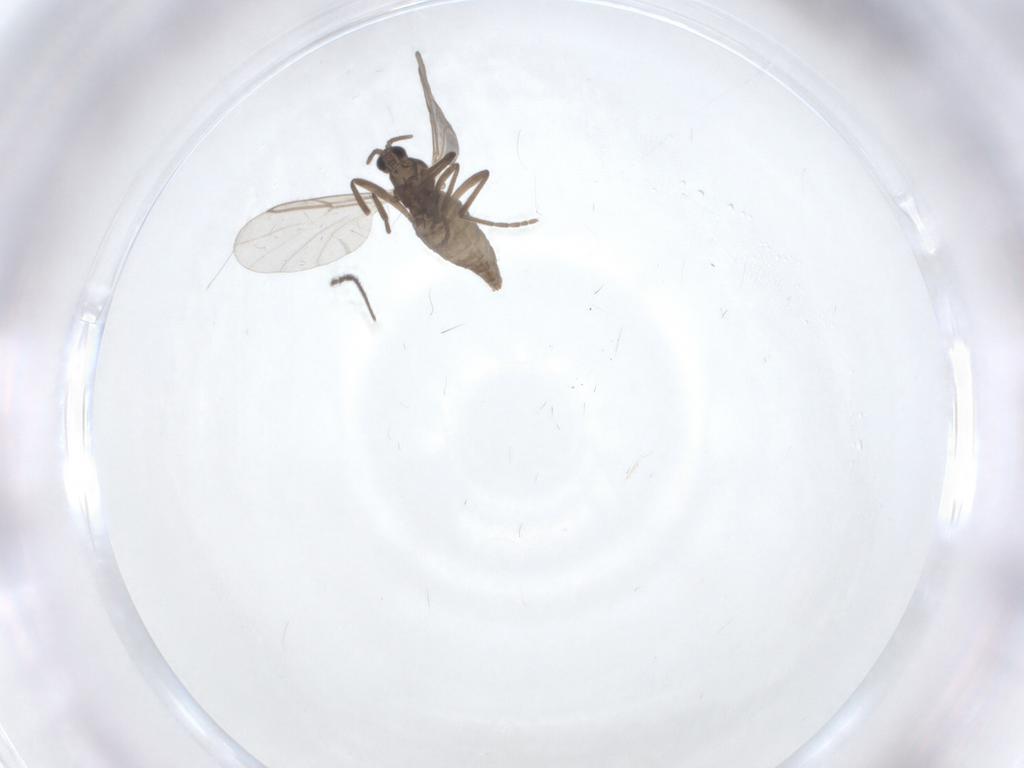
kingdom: Animalia
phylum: Arthropoda
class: Insecta
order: Diptera
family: Cecidomyiidae
